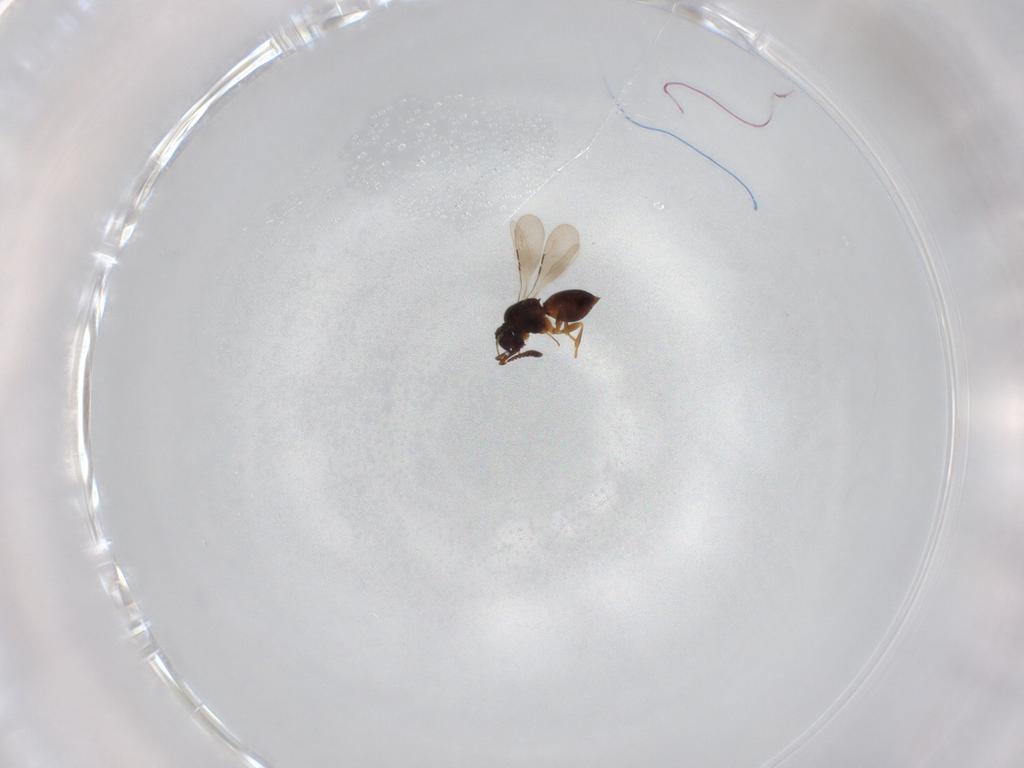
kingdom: Animalia
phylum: Arthropoda
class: Insecta
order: Hymenoptera
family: Ceraphronidae
